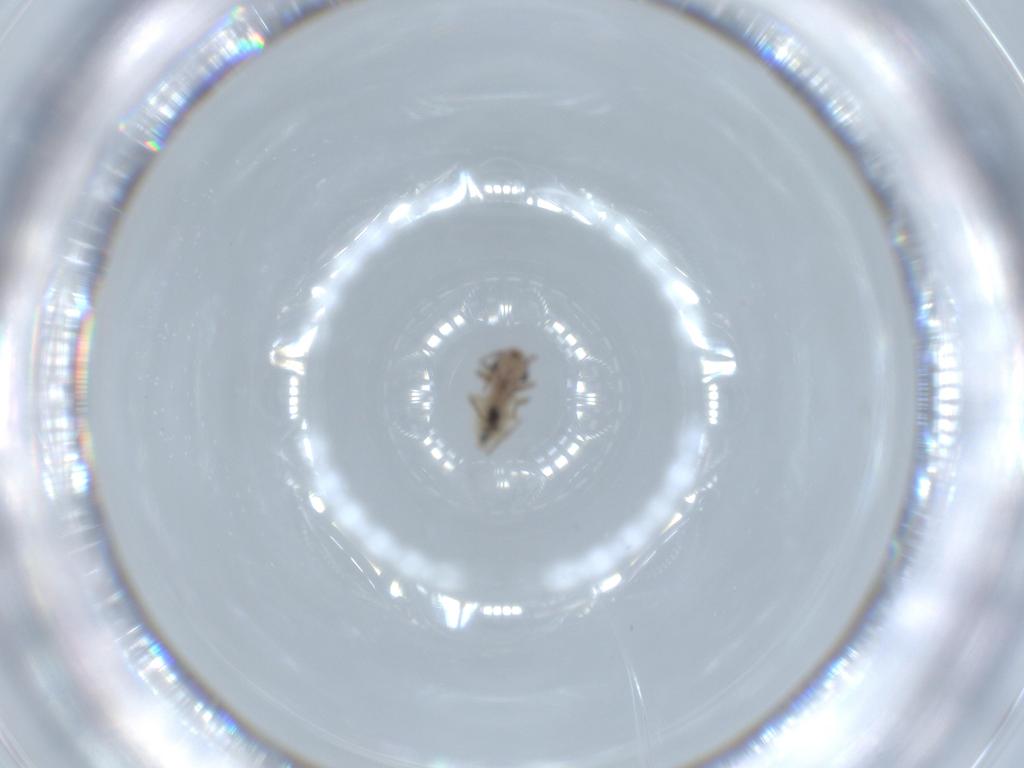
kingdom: Animalia
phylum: Arthropoda
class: Insecta
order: Psocodea
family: Lepidopsocidae
